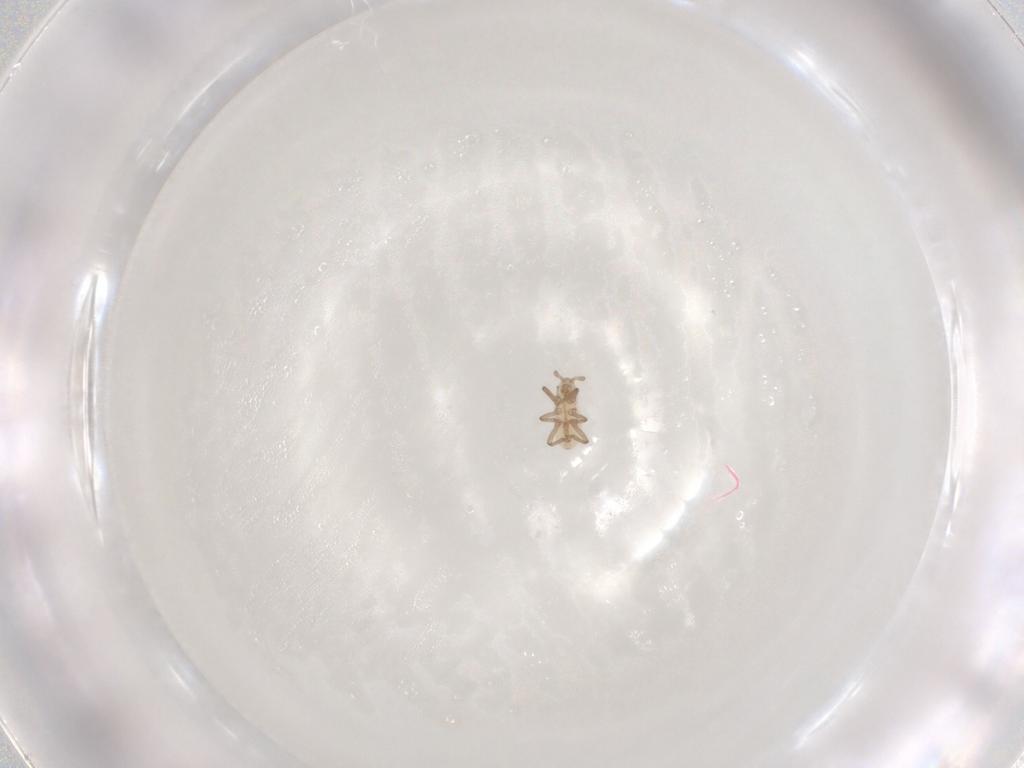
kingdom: Animalia
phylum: Arthropoda
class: Insecta
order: Hemiptera
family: Aphididae
